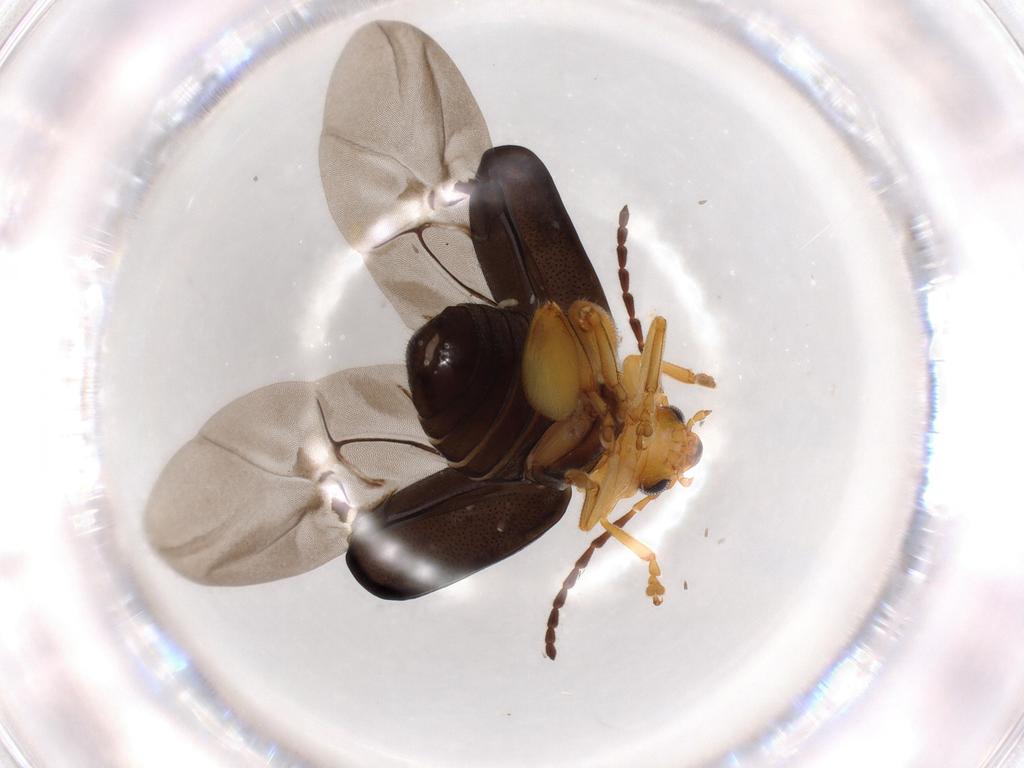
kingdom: Animalia
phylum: Arthropoda
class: Insecta
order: Coleoptera
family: Chrysomelidae
